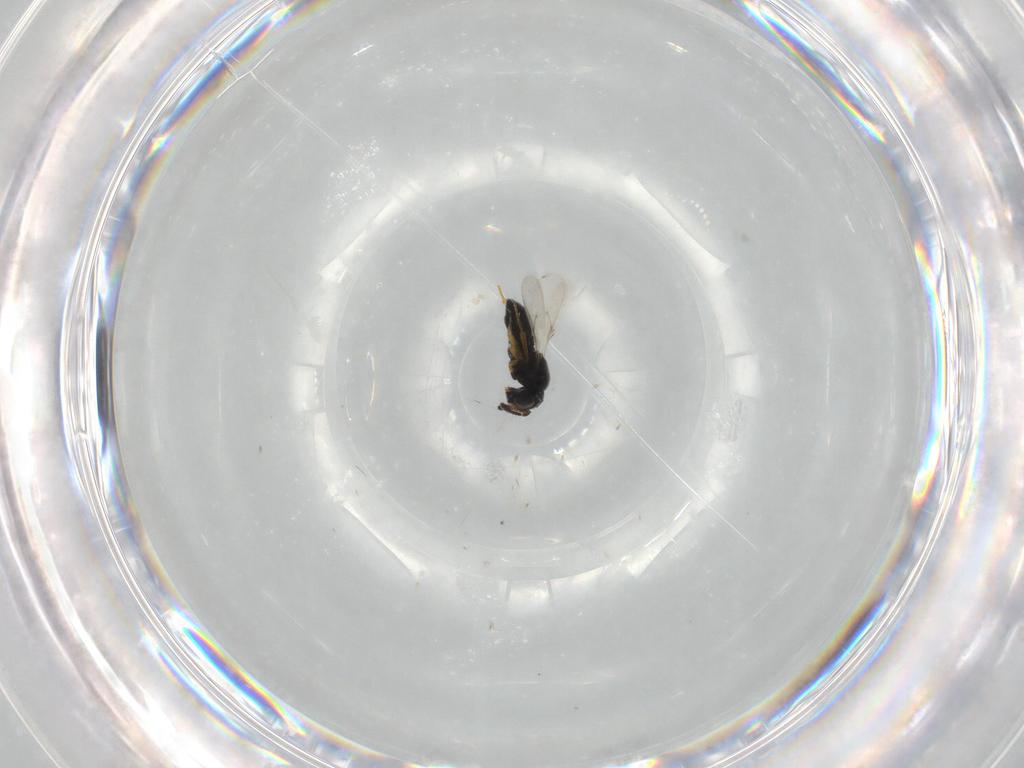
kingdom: Animalia
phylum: Arthropoda
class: Insecta
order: Hymenoptera
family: Scelionidae
